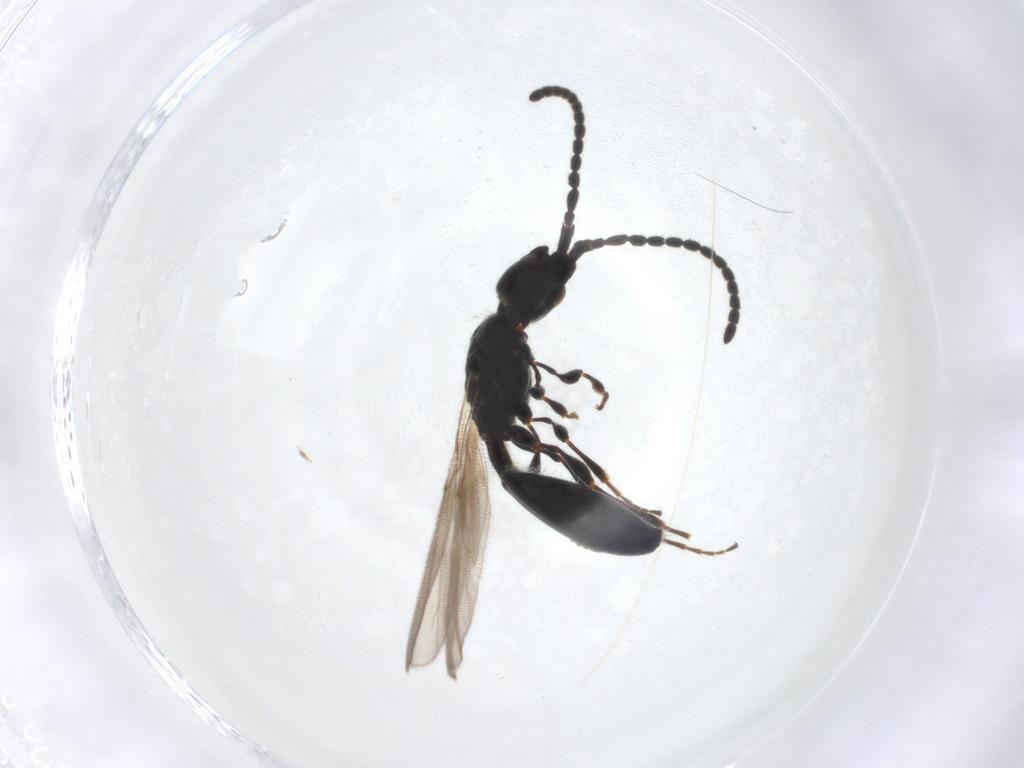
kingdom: Animalia
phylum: Arthropoda
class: Insecta
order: Hymenoptera
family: Diapriidae
